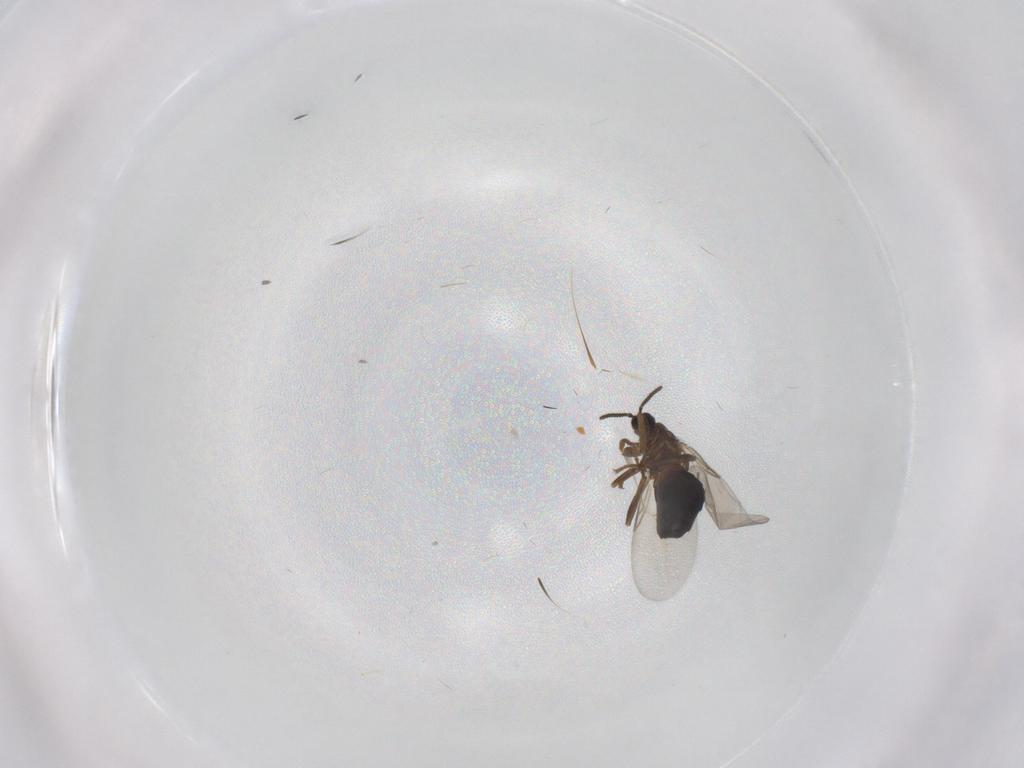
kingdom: Animalia
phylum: Arthropoda
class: Insecta
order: Diptera
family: Scatopsidae
